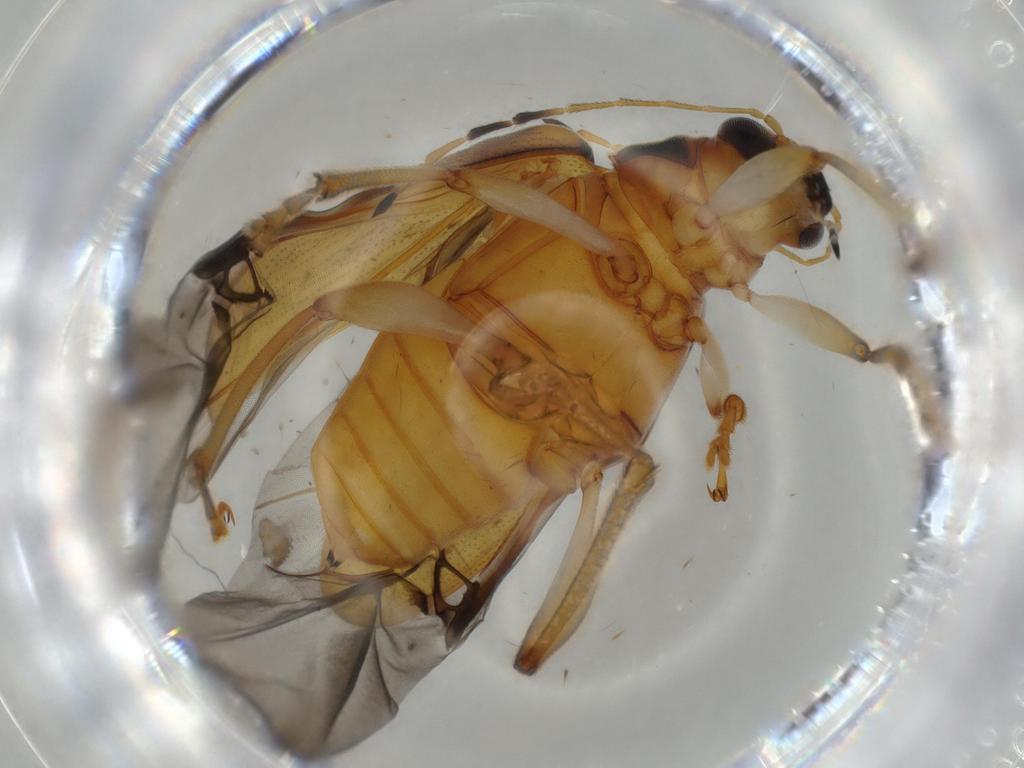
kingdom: Animalia
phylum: Arthropoda
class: Insecta
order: Coleoptera
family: Chrysomelidae
